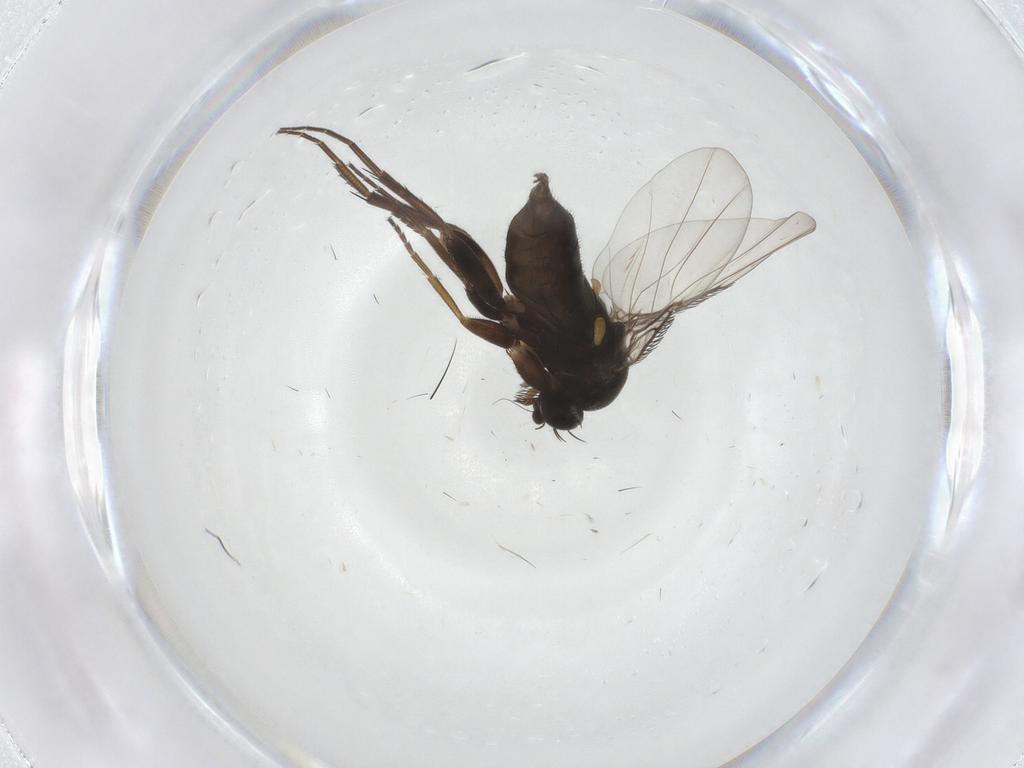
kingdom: Animalia
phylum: Arthropoda
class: Insecta
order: Diptera
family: Phoridae
